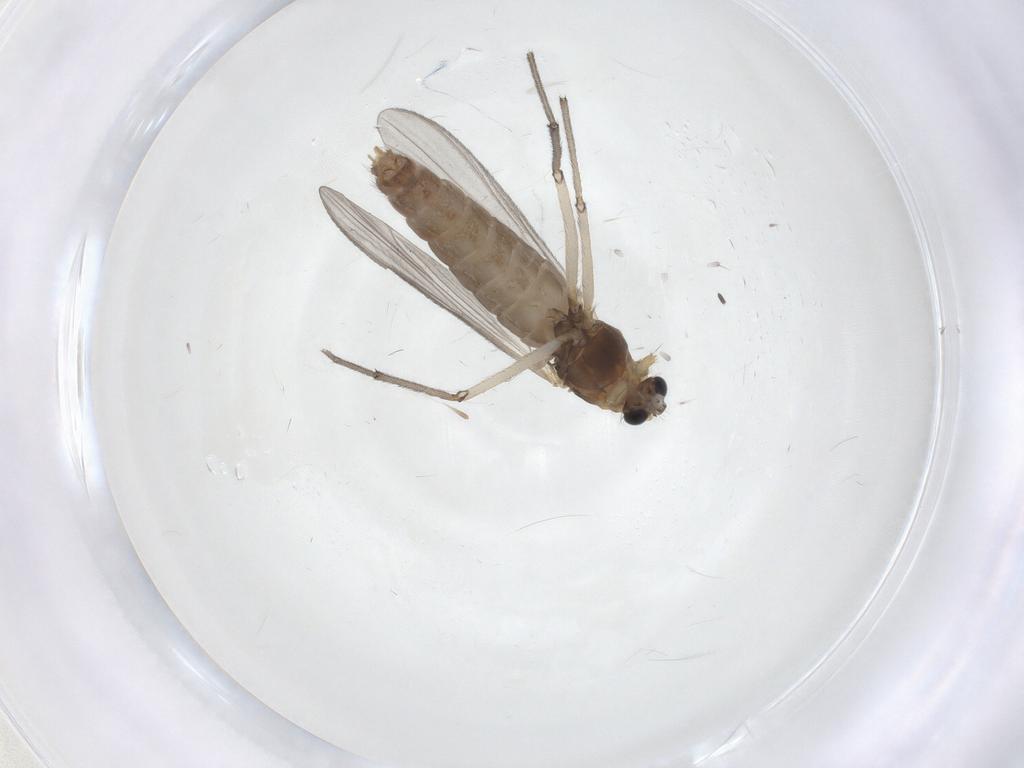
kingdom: Animalia
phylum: Arthropoda
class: Insecta
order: Diptera
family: Chironomidae
